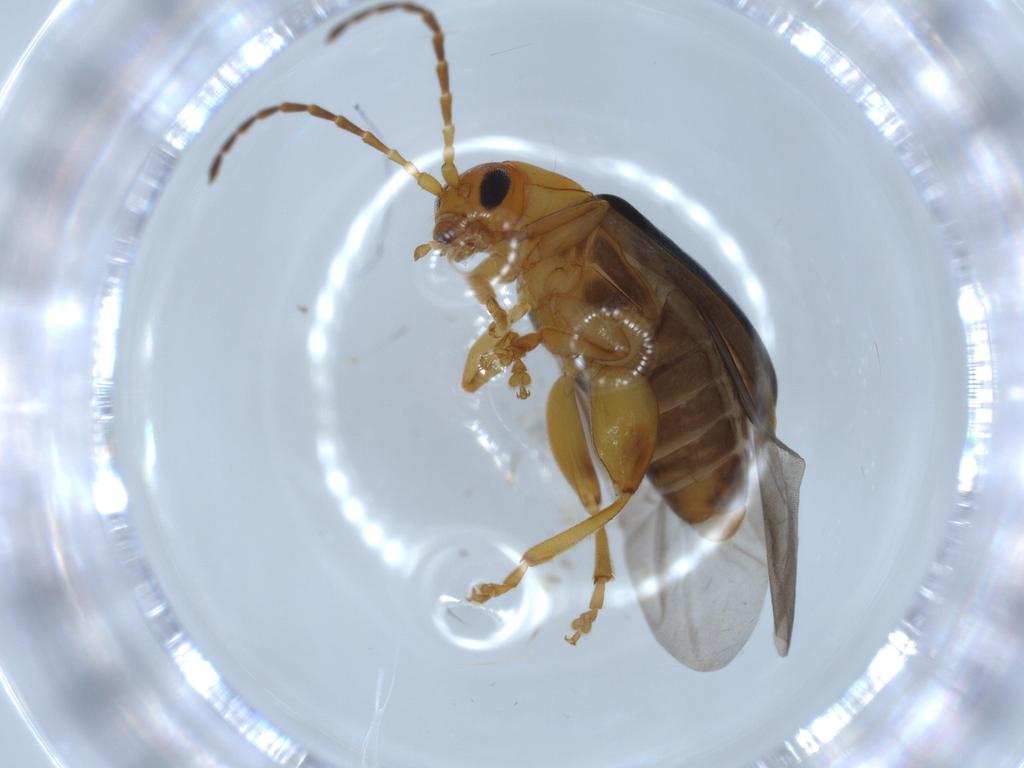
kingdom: Animalia
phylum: Arthropoda
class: Insecta
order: Coleoptera
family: Chrysomelidae
